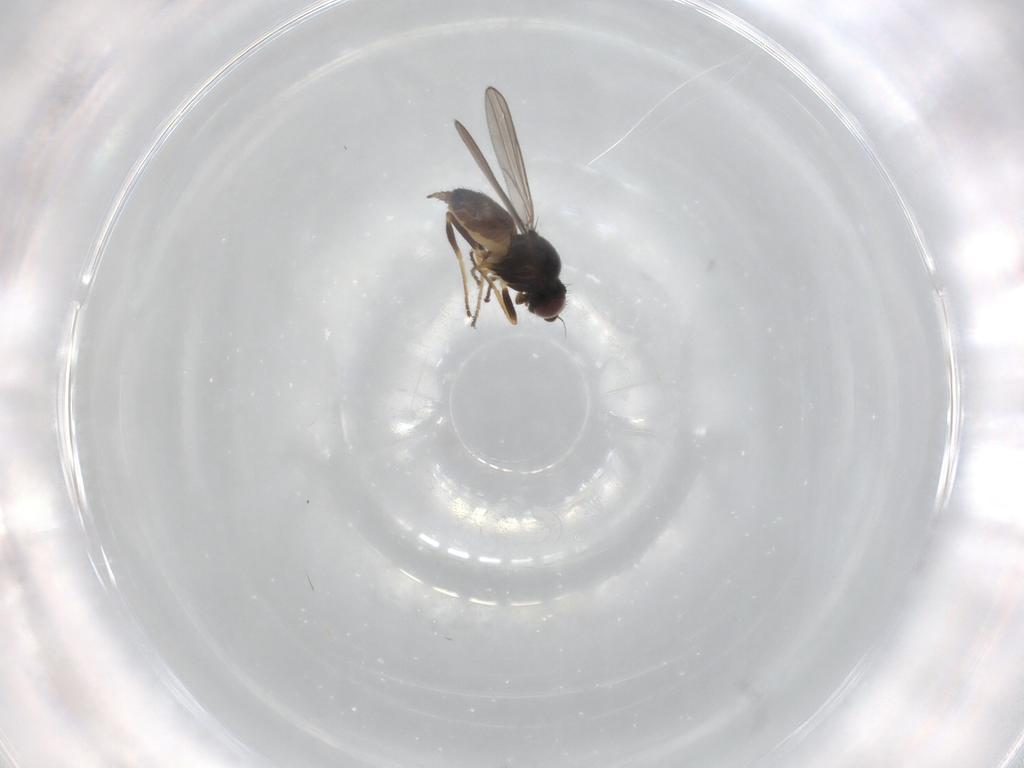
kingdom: Animalia
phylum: Arthropoda
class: Insecta
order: Diptera
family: Chloropidae
